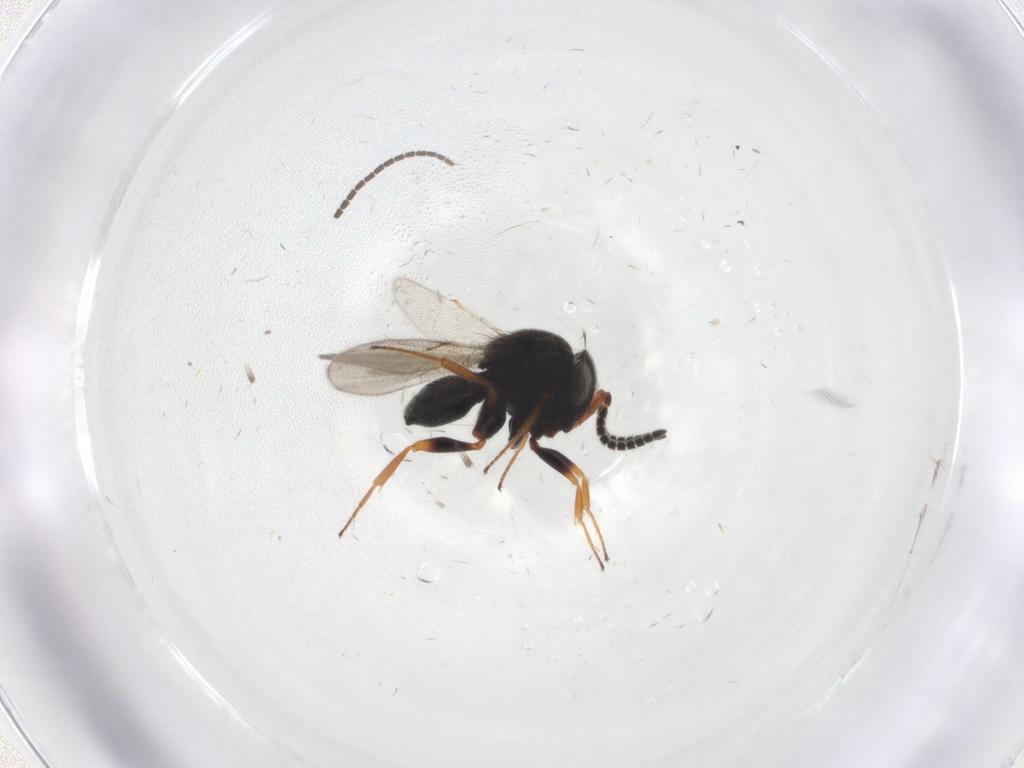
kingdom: Animalia
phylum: Arthropoda
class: Insecta
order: Hymenoptera
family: Scelionidae
